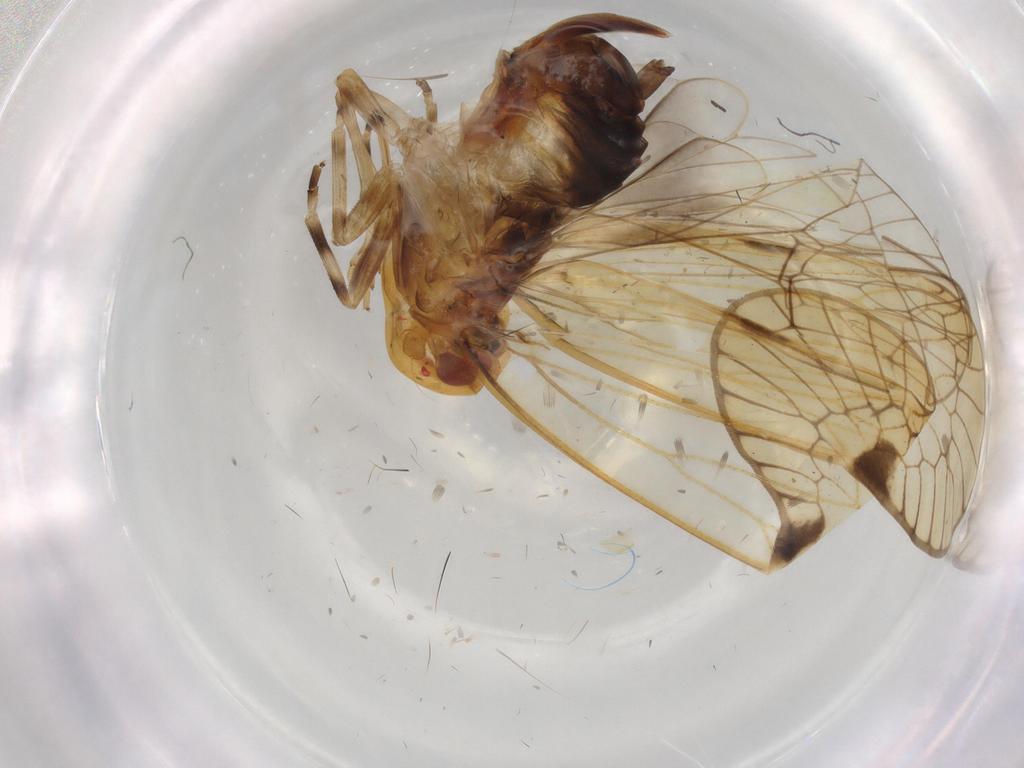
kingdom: Animalia
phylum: Arthropoda
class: Insecta
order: Hemiptera
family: Cixiidae
